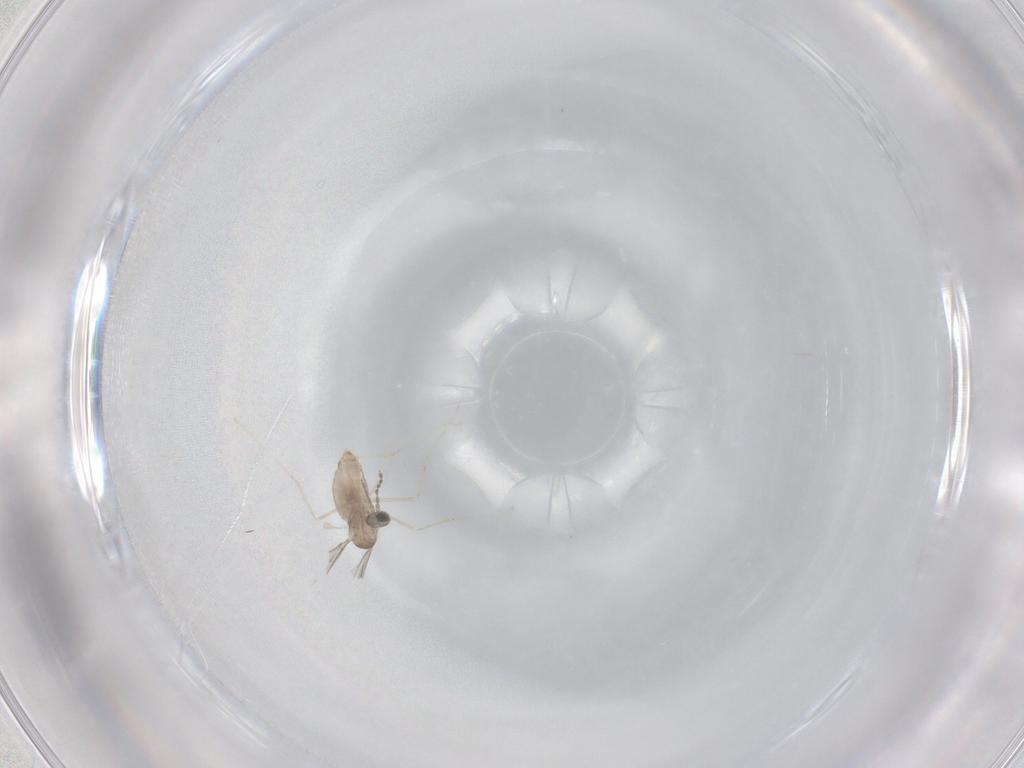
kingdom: Animalia
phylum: Arthropoda
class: Insecta
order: Diptera
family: Cecidomyiidae
